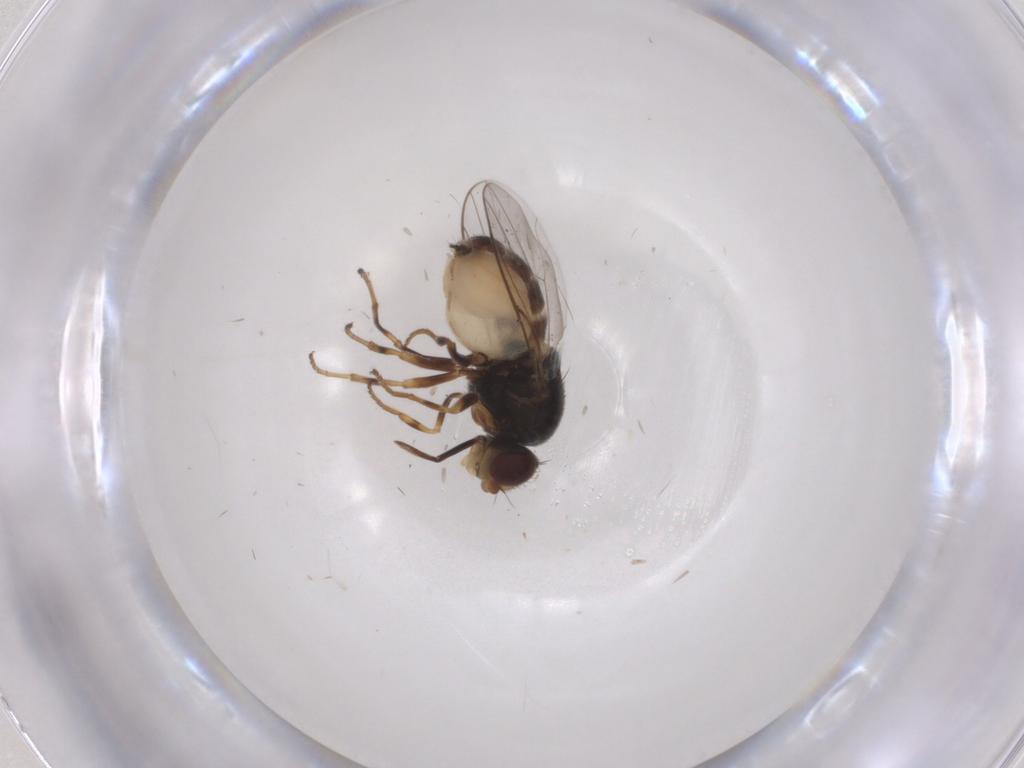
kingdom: Animalia
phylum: Arthropoda
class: Insecta
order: Diptera
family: Chloropidae
